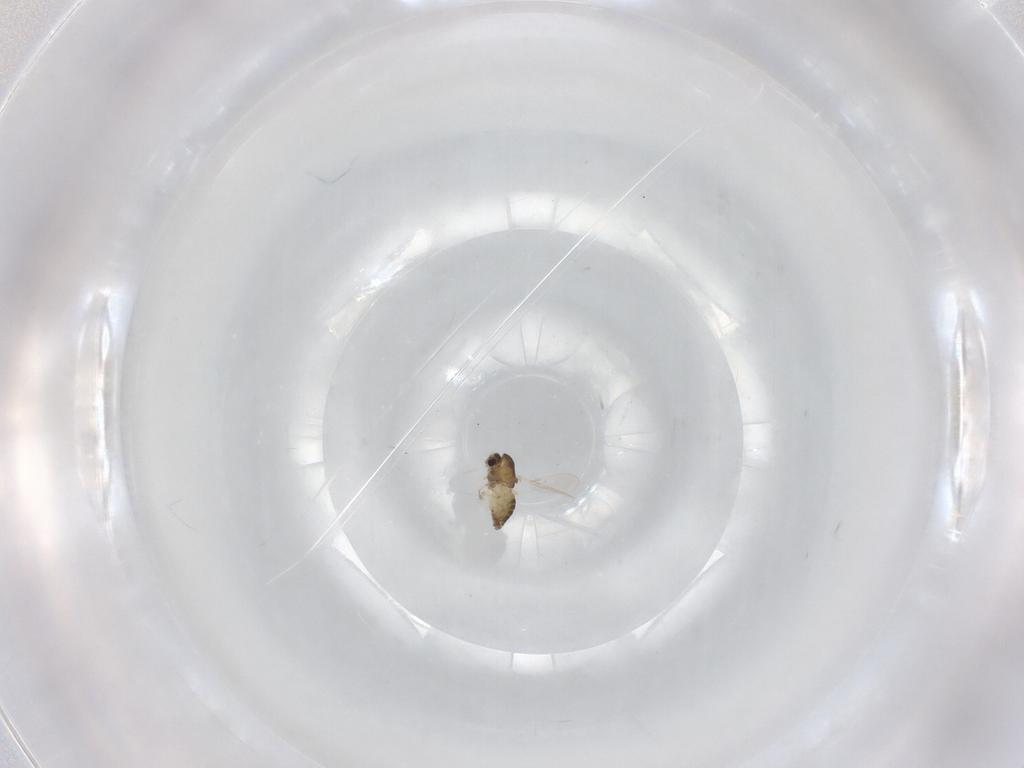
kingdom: Animalia
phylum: Arthropoda
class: Insecta
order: Diptera
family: Chironomidae
